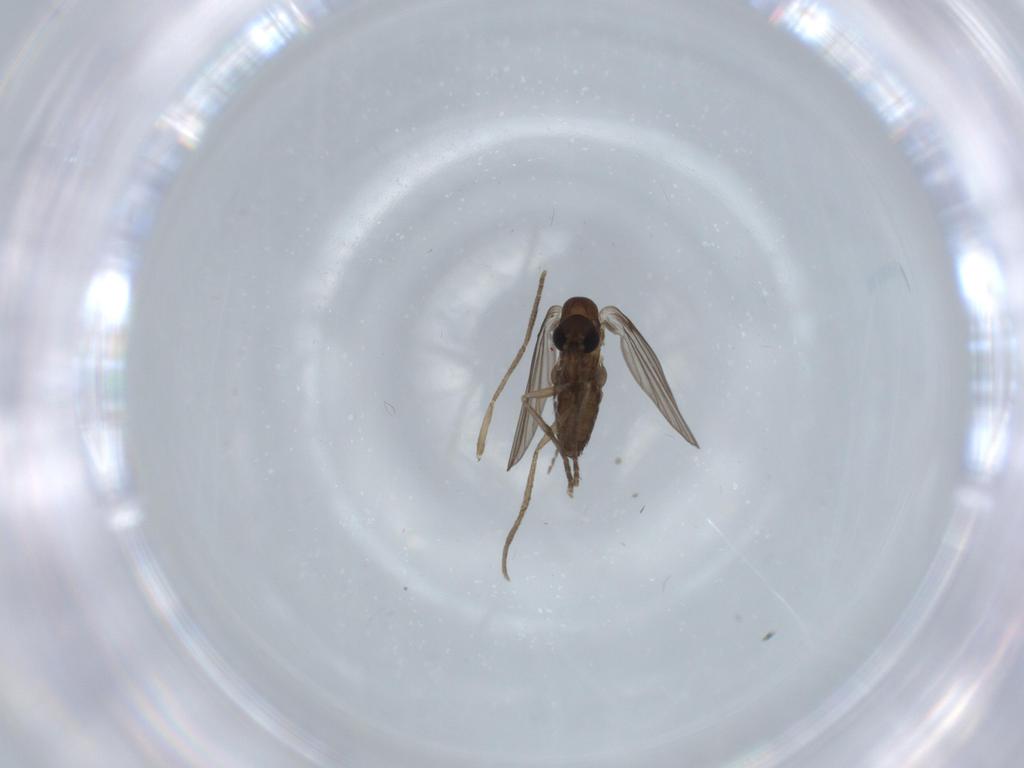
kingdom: Animalia
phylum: Arthropoda
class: Insecta
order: Diptera
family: Psychodidae
